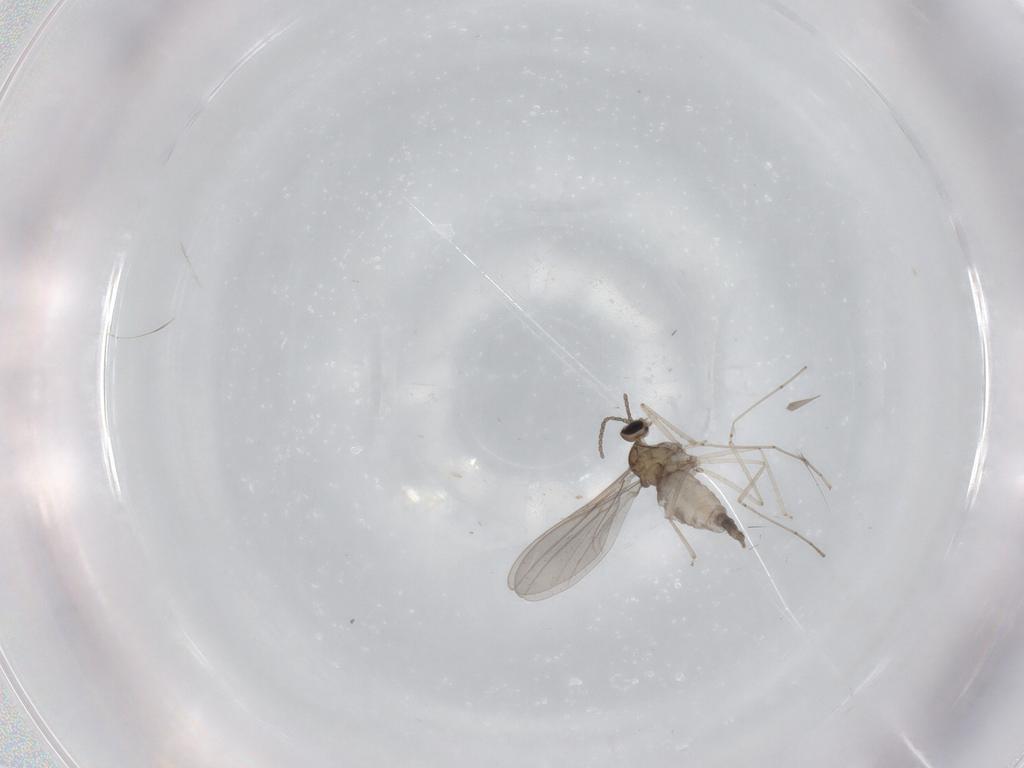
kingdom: Animalia
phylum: Arthropoda
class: Insecta
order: Diptera
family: Cecidomyiidae
